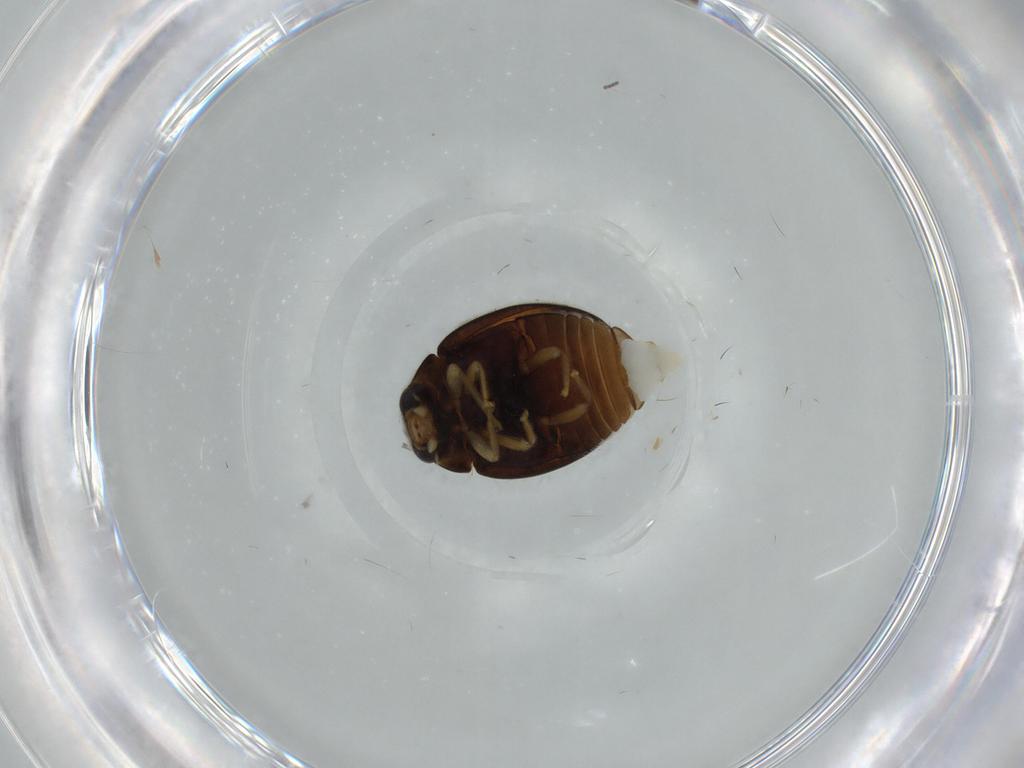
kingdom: Animalia
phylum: Arthropoda
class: Insecta
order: Coleoptera
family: Coccinellidae
